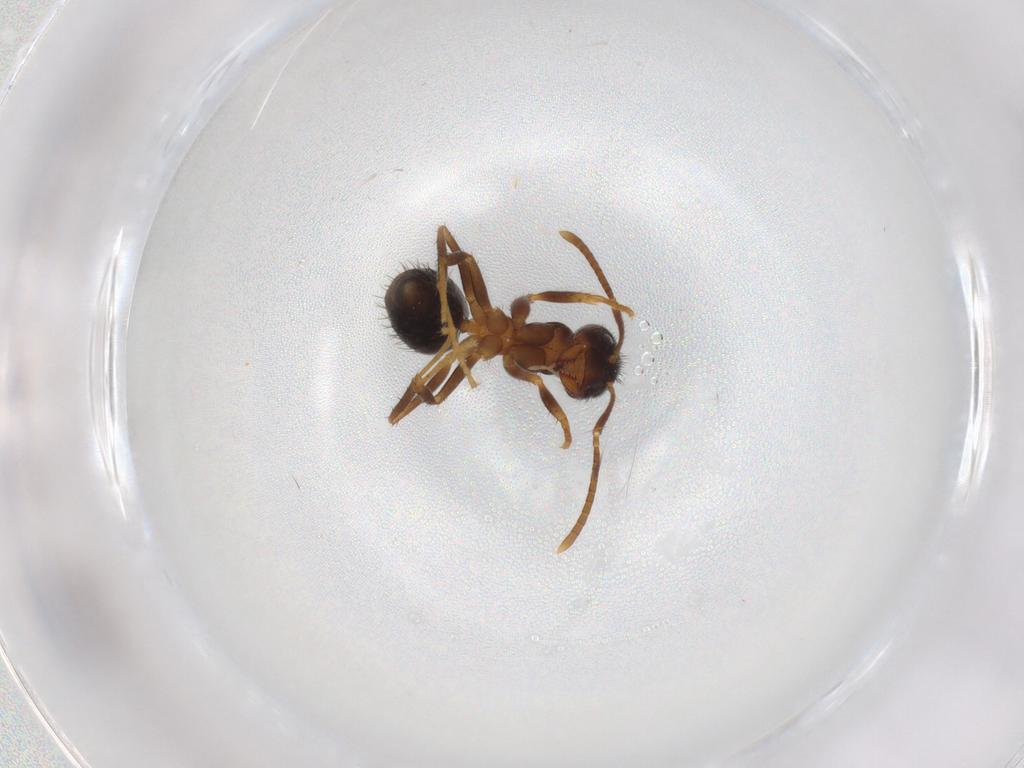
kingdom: Animalia
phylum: Arthropoda
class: Insecta
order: Hymenoptera
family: Formicidae
